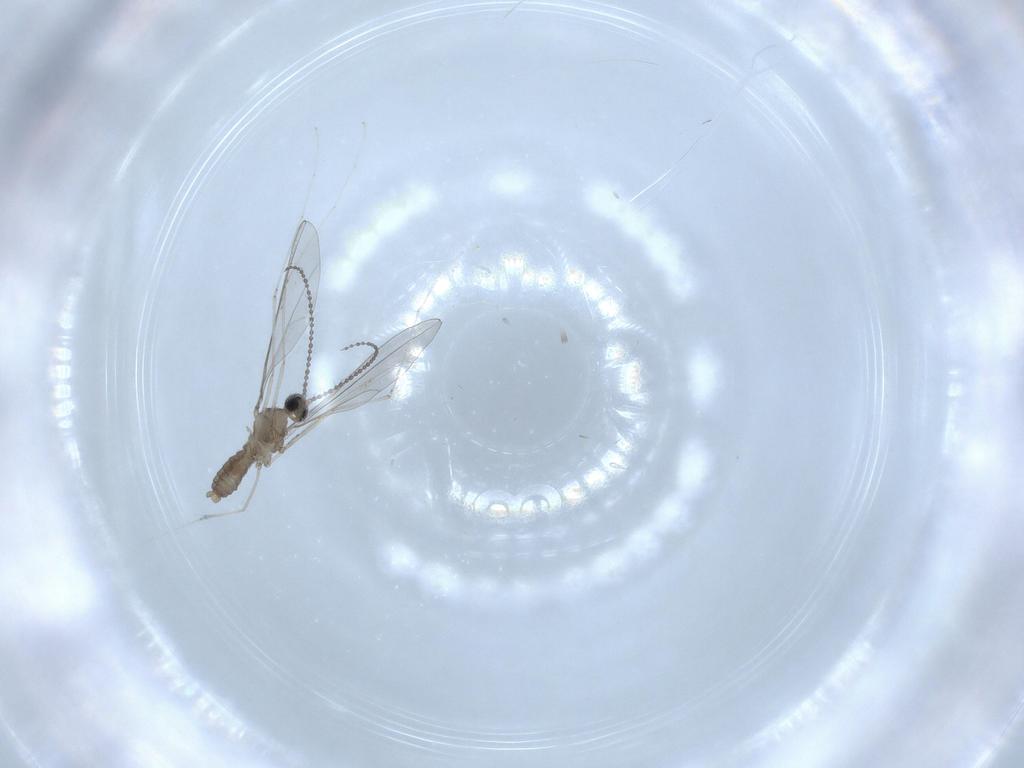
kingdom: Animalia
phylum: Arthropoda
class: Insecta
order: Diptera
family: Cecidomyiidae
